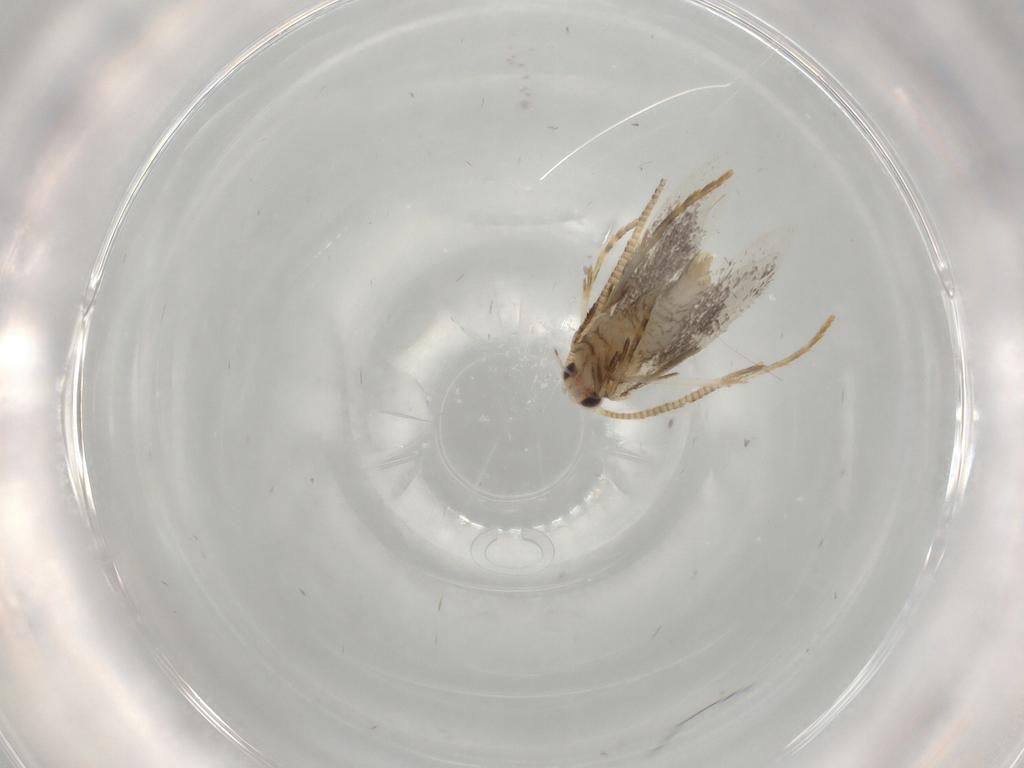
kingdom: Animalia
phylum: Arthropoda
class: Insecta
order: Lepidoptera
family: Tineidae
